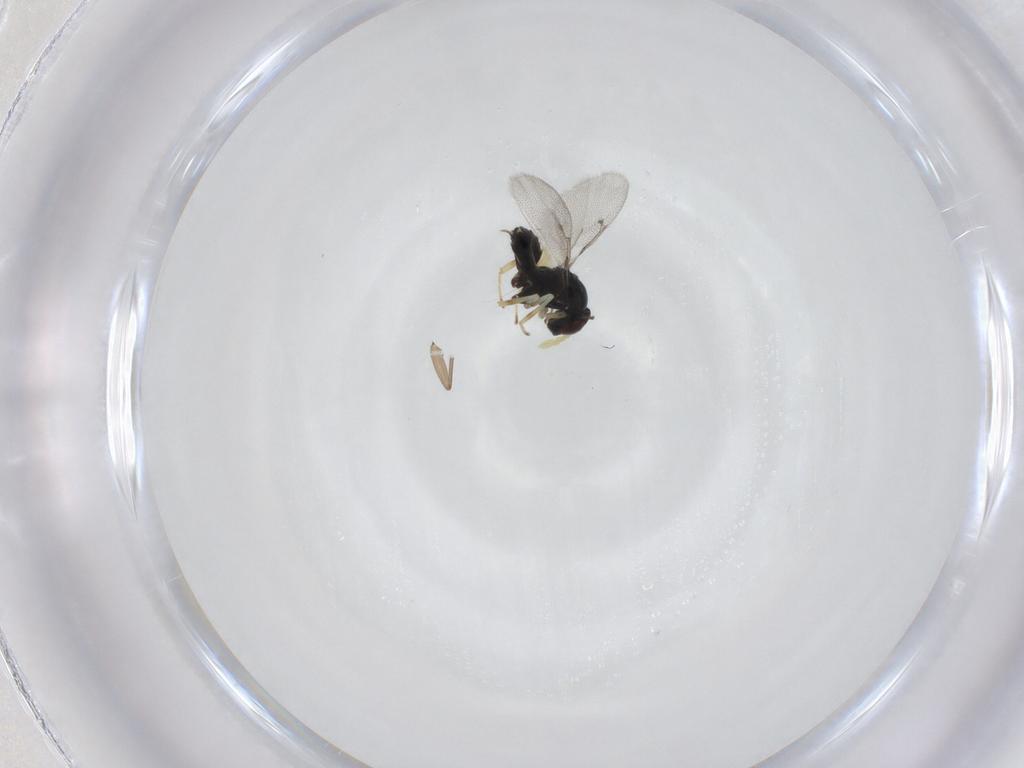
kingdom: Animalia
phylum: Arthropoda
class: Insecta
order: Hymenoptera
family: Eulophidae
